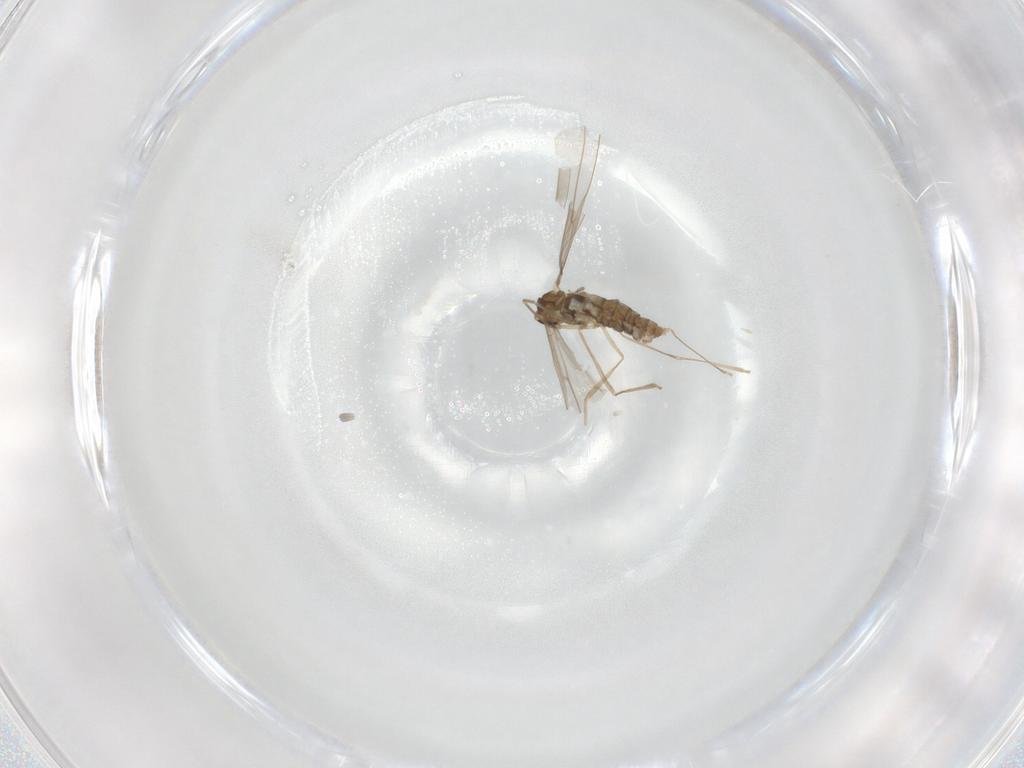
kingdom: Animalia
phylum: Arthropoda
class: Insecta
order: Diptera
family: Cecidomyiidae
